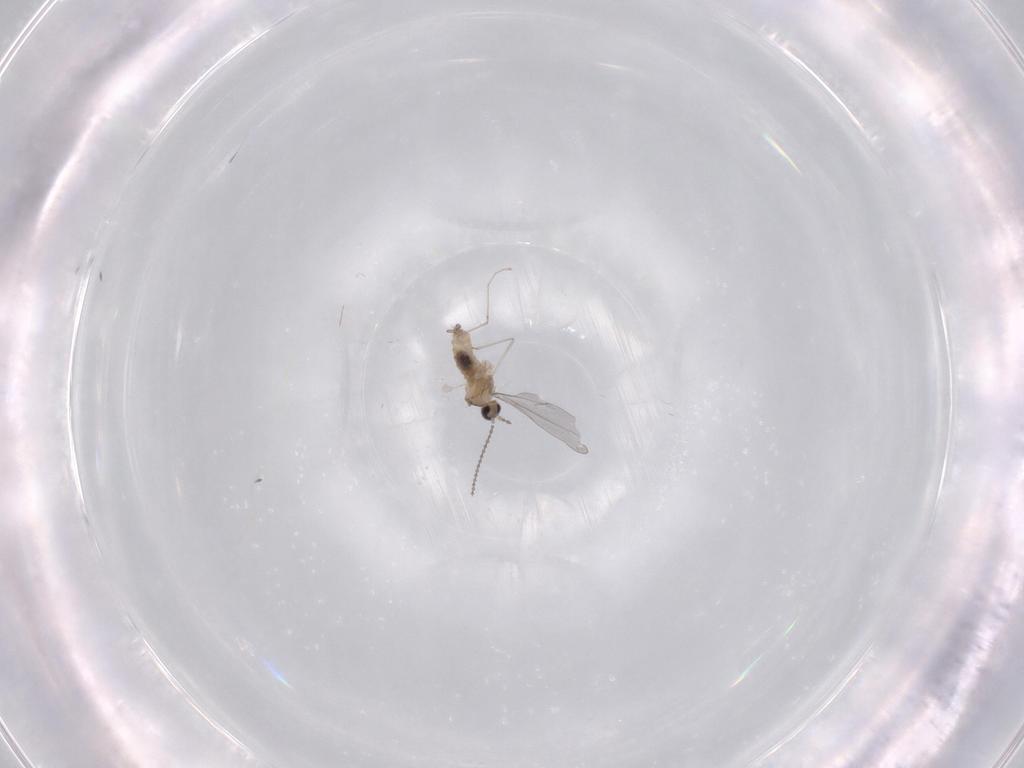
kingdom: Animalia
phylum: Arthropoda
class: Insecta
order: Diptera
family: Cecidomyiidae
